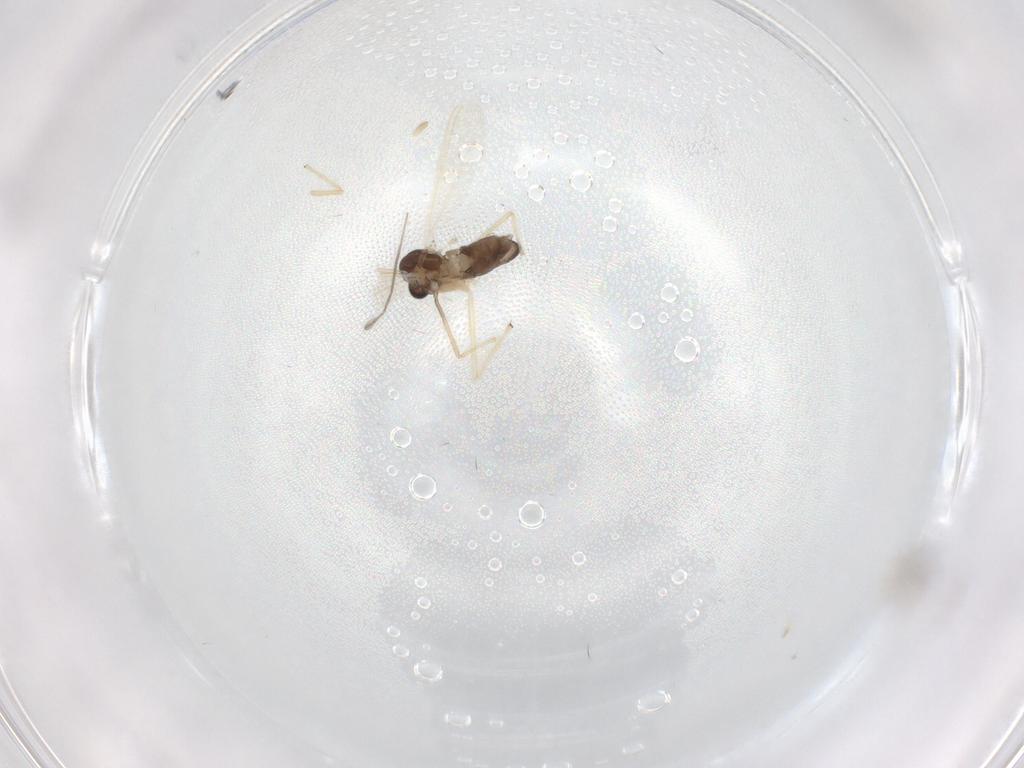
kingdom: Animalia
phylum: Arthropoda
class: Insecta
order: Diptera
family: Chironomidae
